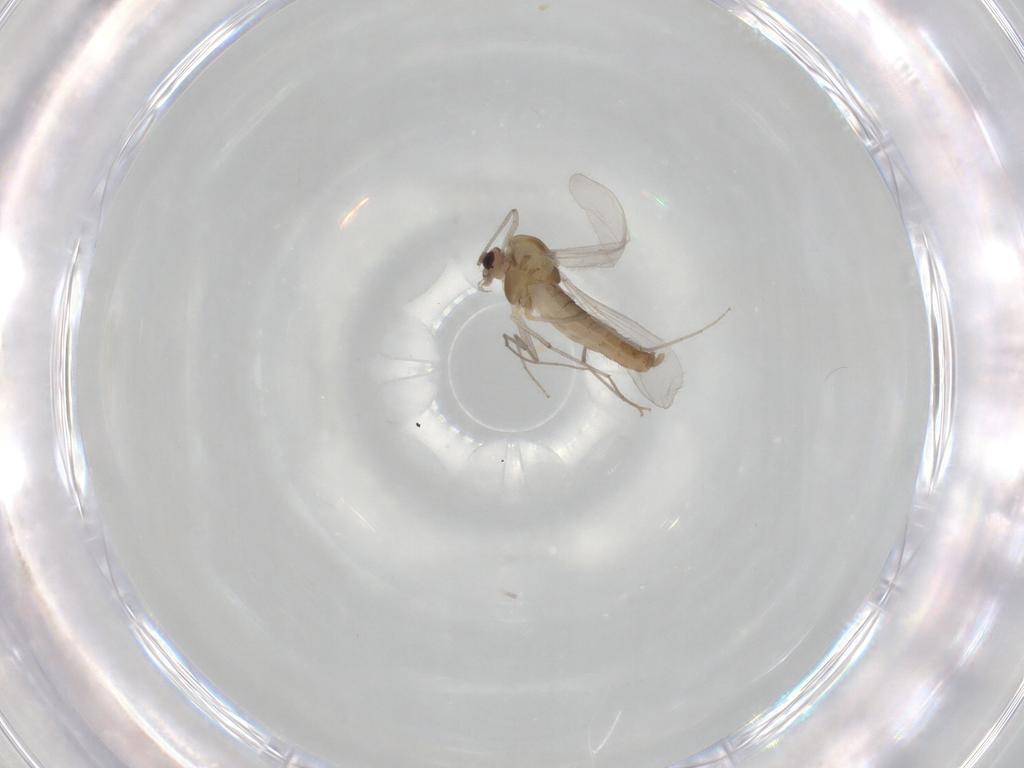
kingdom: Animalia
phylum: Arthropoda
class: Insecta
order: Diptera
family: Chironomidae
